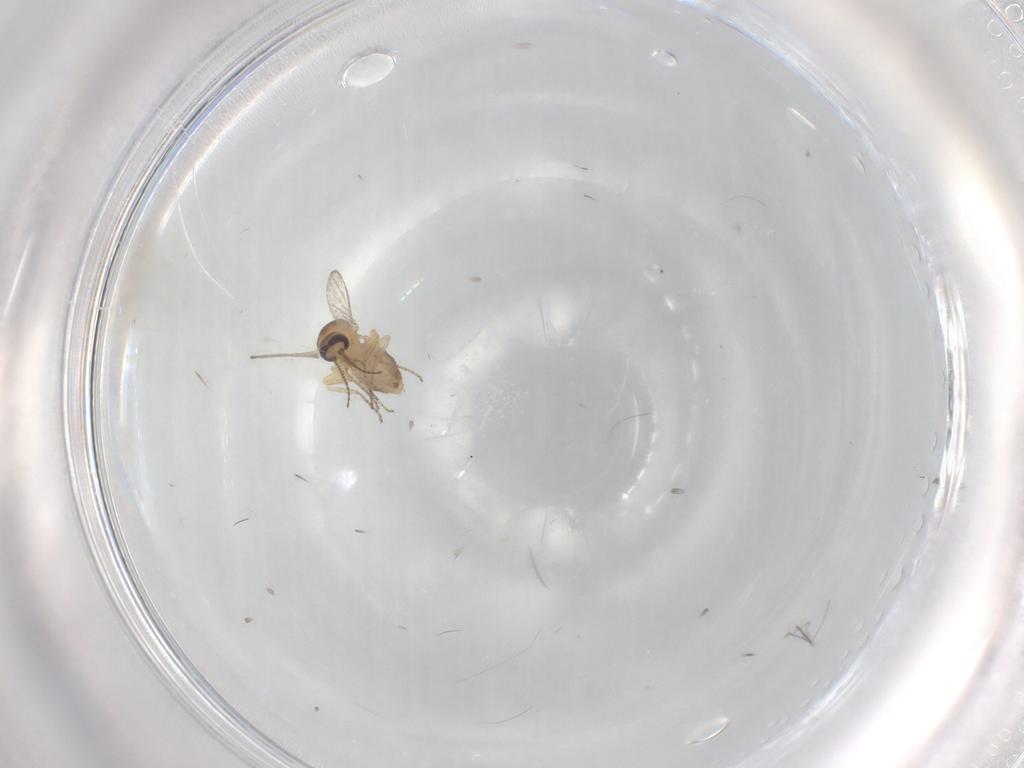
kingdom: Animalia
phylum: Arthropoda
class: Insecta
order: Diptera
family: Ceratopogonidae
